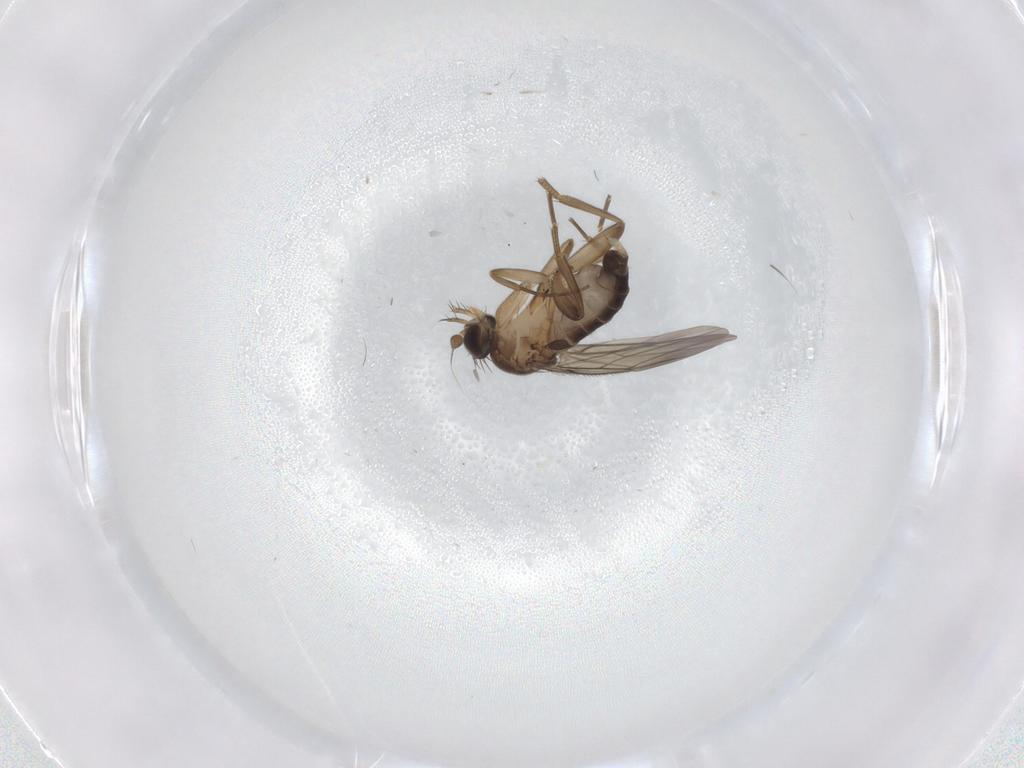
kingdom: Animalia
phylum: Arthropoda
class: Insecta
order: Diptera
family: Phoridae
